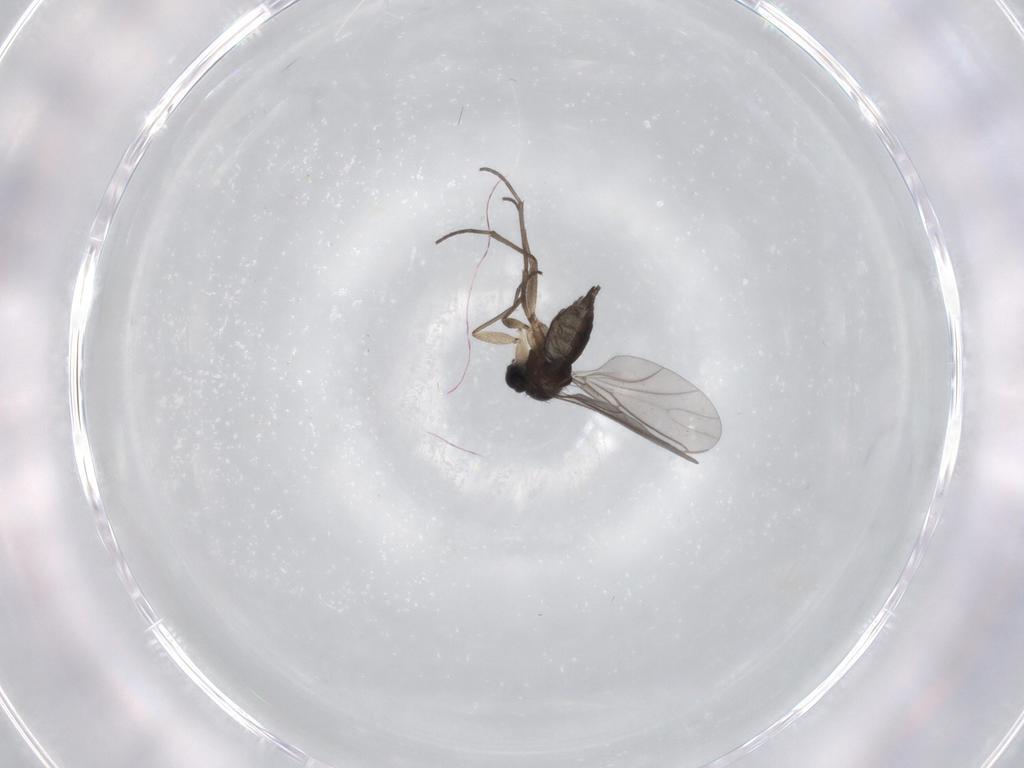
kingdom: Animalia
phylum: Arthropoda
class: Insecta
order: Diptera
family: Sciaridae
